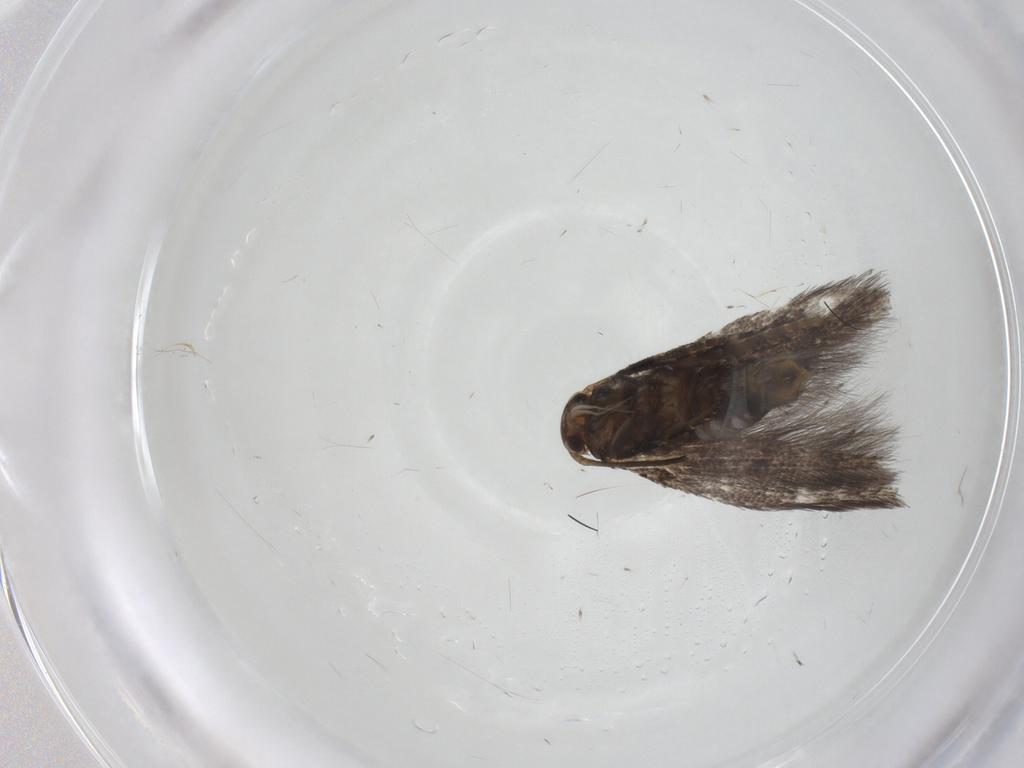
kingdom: Animalia
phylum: Arthropoda
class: Insecta
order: Lepidoptera
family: Elachistidae
